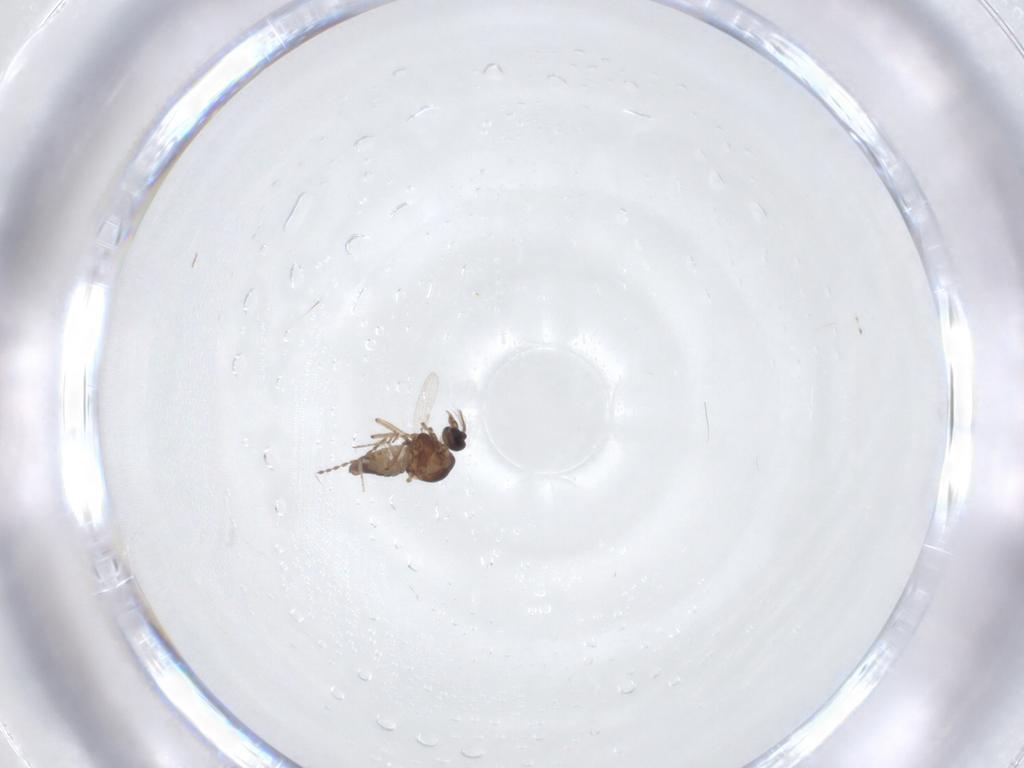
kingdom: Animalia
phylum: Arthropoda
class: Insecta
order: Diptera
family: Ceratopogonidae
